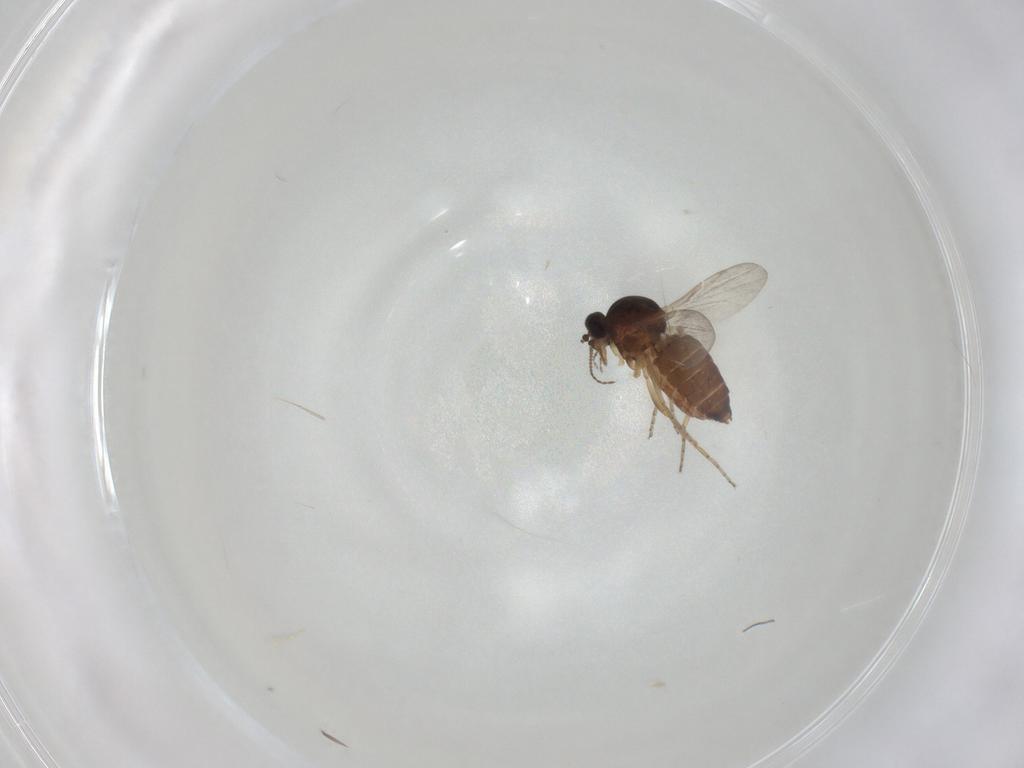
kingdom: Animalia
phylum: Arthropoda
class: Insecta
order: Diptera
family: Ceratopogonidae
